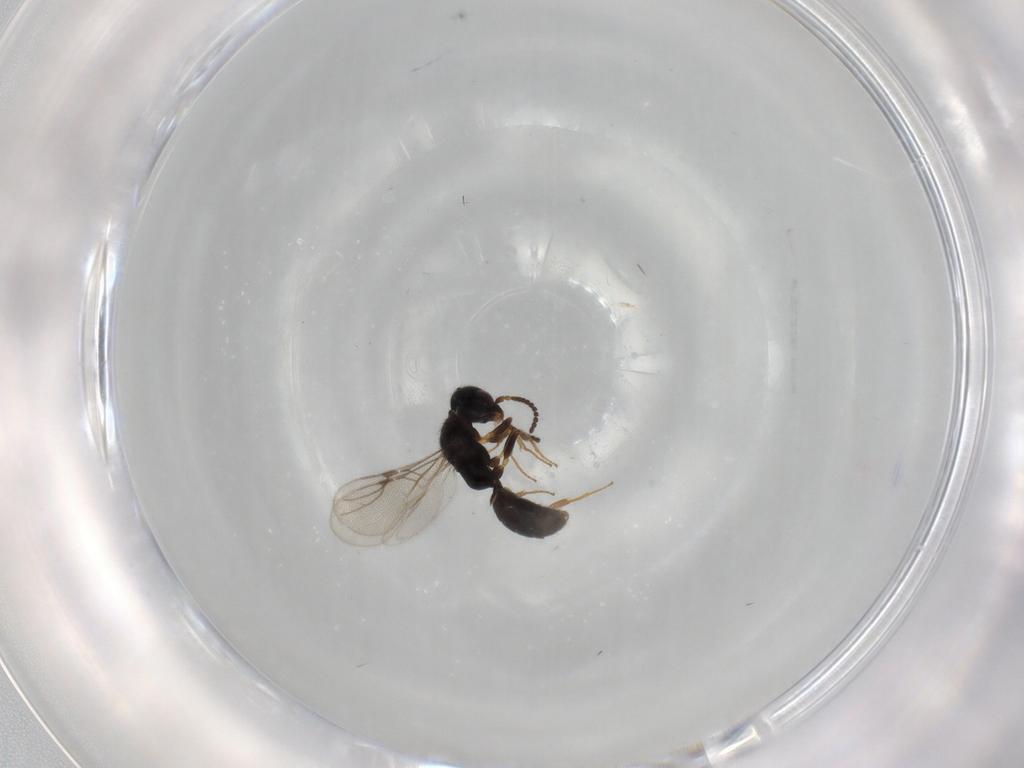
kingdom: Animalia
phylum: Arthropoda
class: Insecta
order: Hymenoptera
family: Bethylidae
